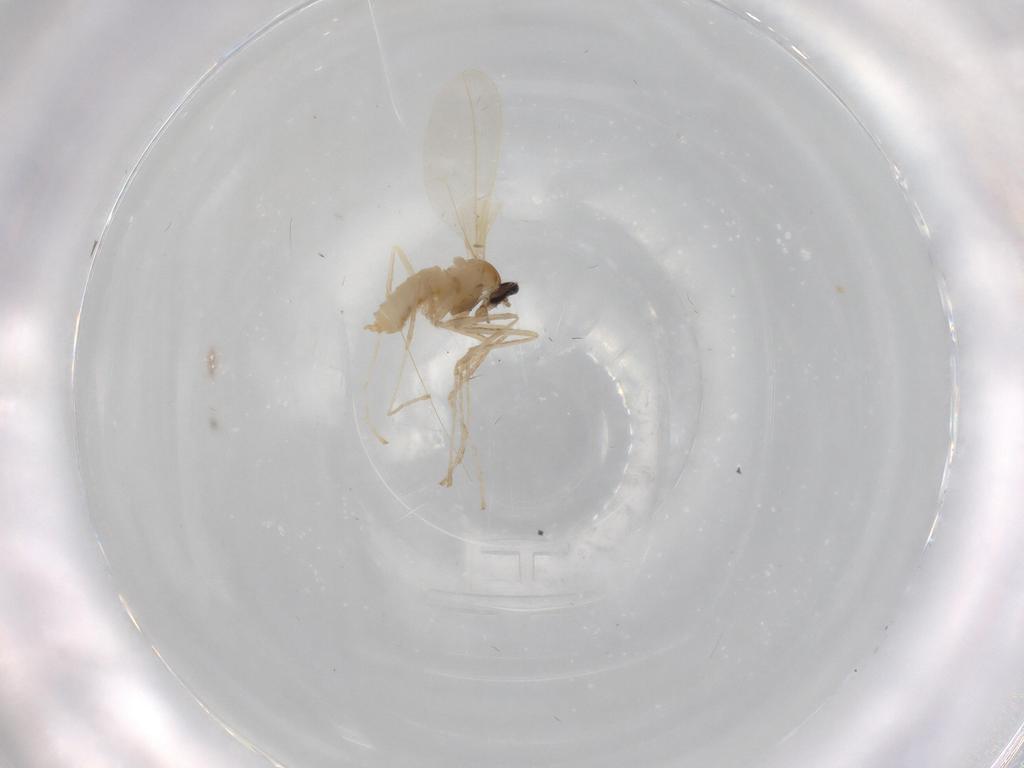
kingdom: Animalia
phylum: Arthropoda
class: Insecta
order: Diptera
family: Cecidomyiidae
